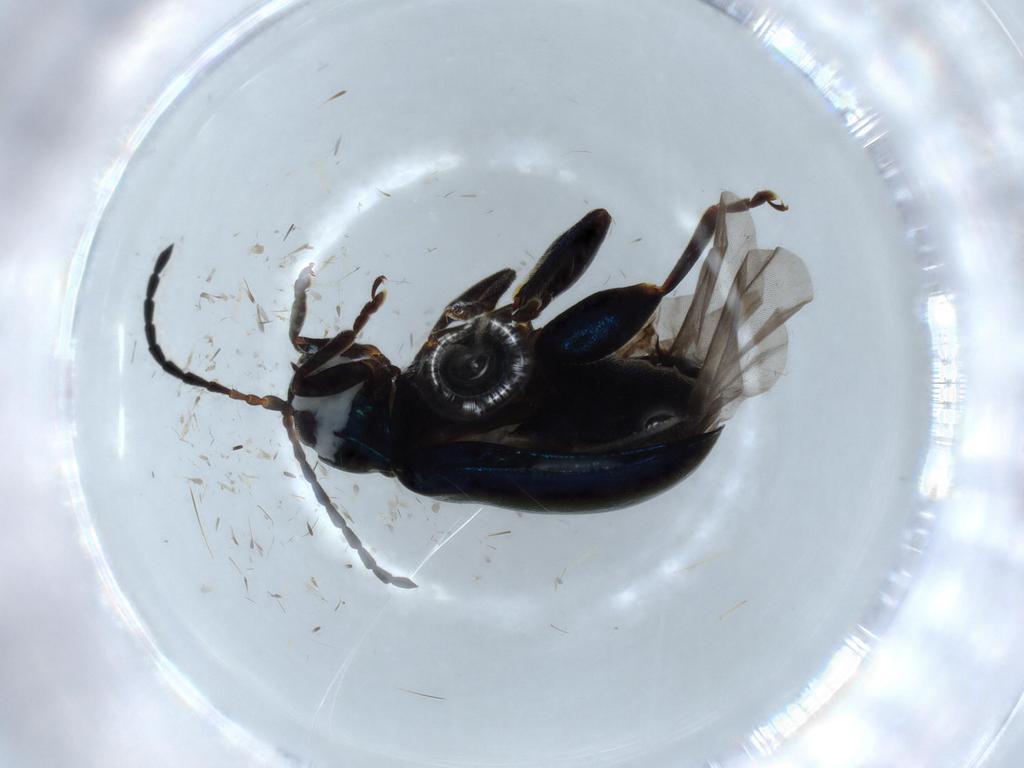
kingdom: Animalia
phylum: Arthropoda
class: Insecta
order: Coleoptera
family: Chrysomelidae
